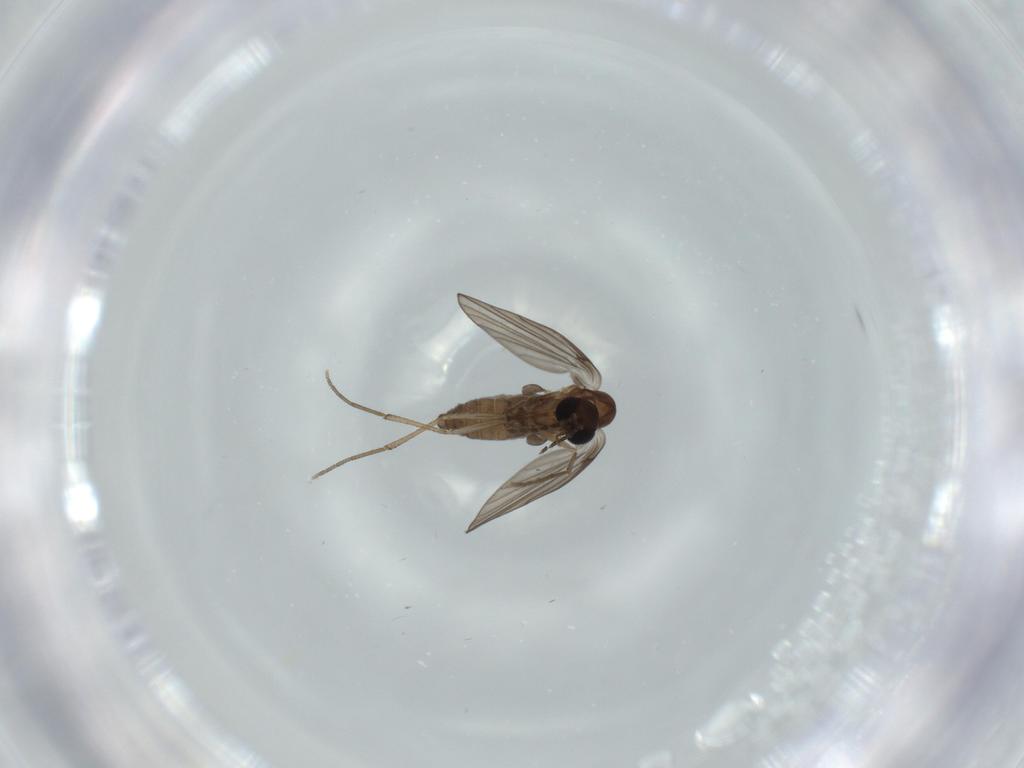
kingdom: Animalia
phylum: Arthropoda
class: Insecta
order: Diptera
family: Psychodidae
